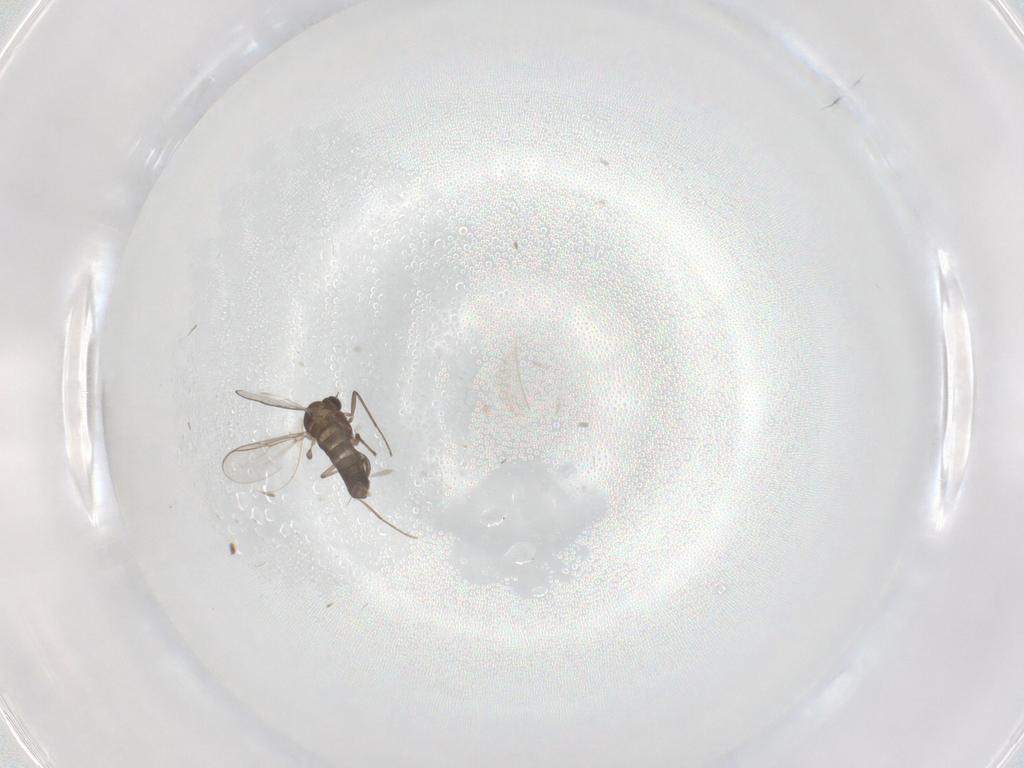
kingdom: Animalia
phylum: Arthropoda
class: Insecta
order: Diptera
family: Chironomidae
